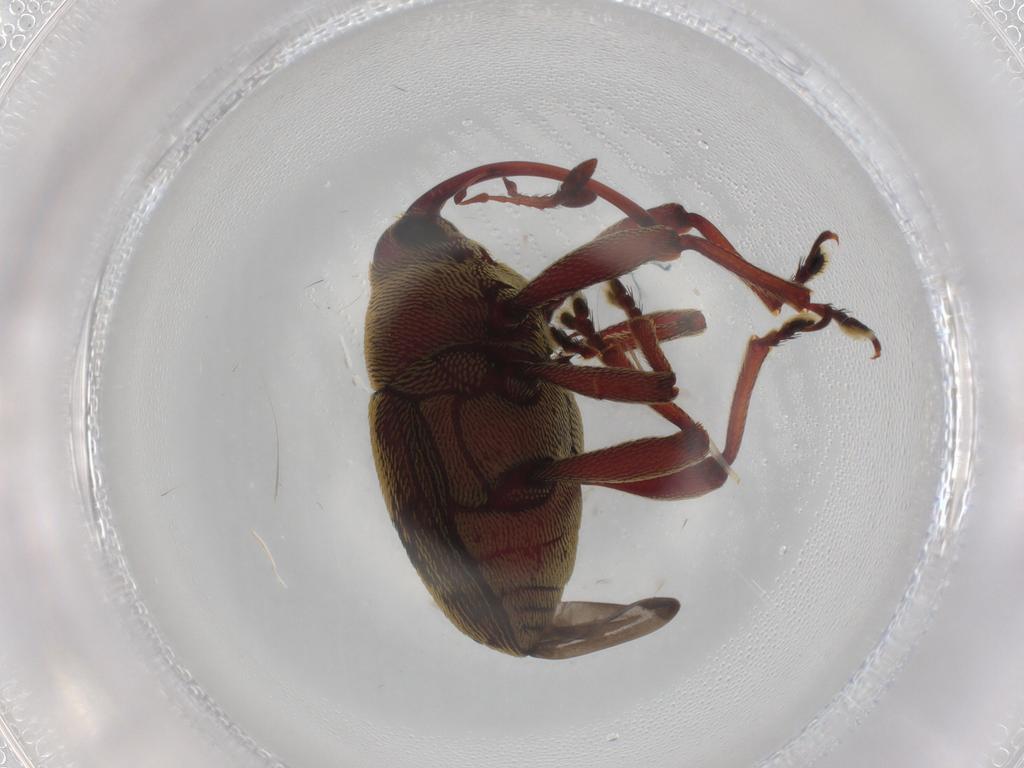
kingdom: Animalia
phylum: Arthropoda
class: Insecta
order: Coleoptera
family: Curculionidae
